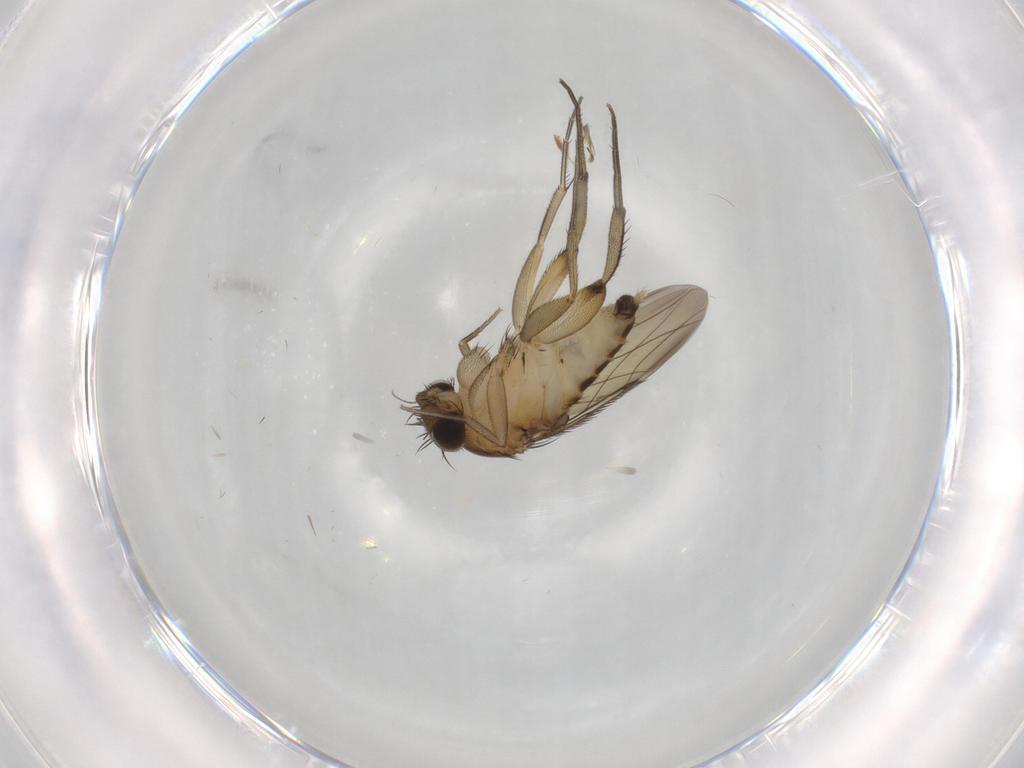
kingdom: Animalia
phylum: Arthropoda
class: Insecta
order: Diptera
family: Phoridae
